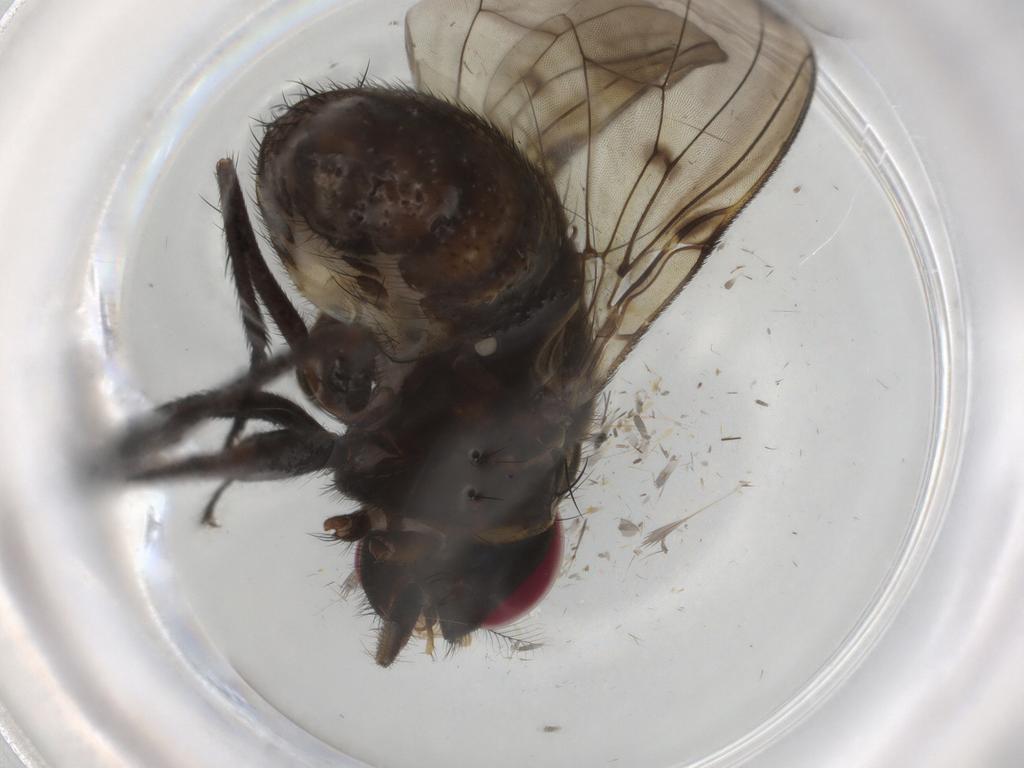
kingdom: Animalia
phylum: Arthropoda
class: Insecta
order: Diptera
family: Muscidae
